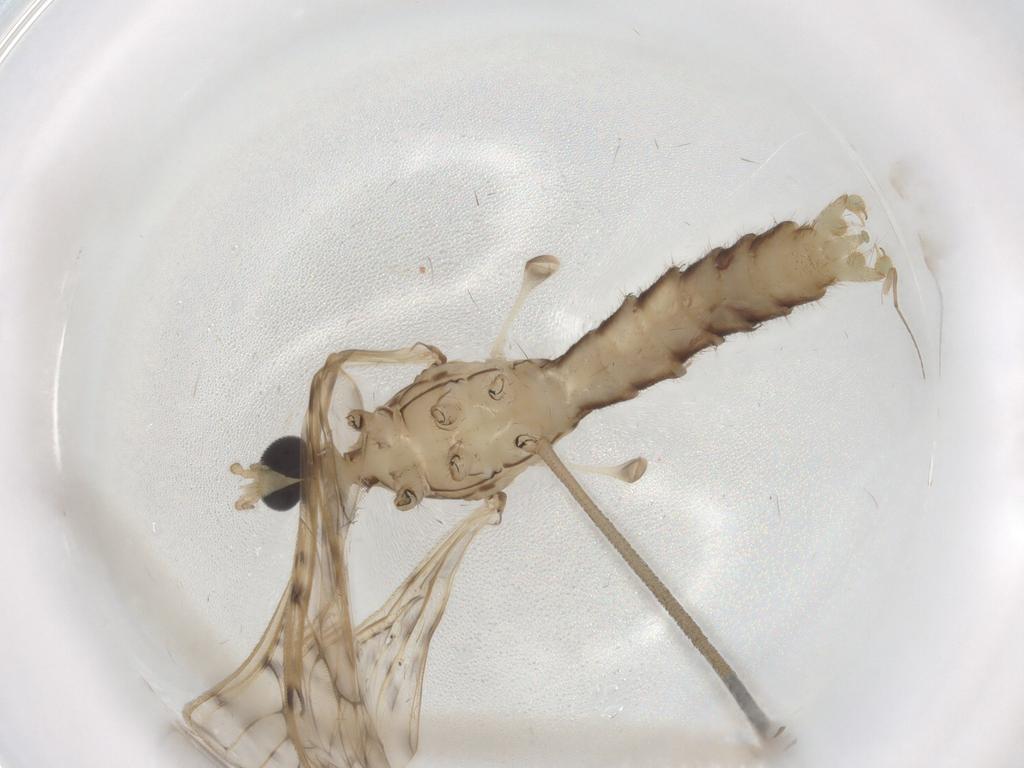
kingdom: Animalia
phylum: Arthropoda
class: Insecta
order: Diptera
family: Ephydridae
